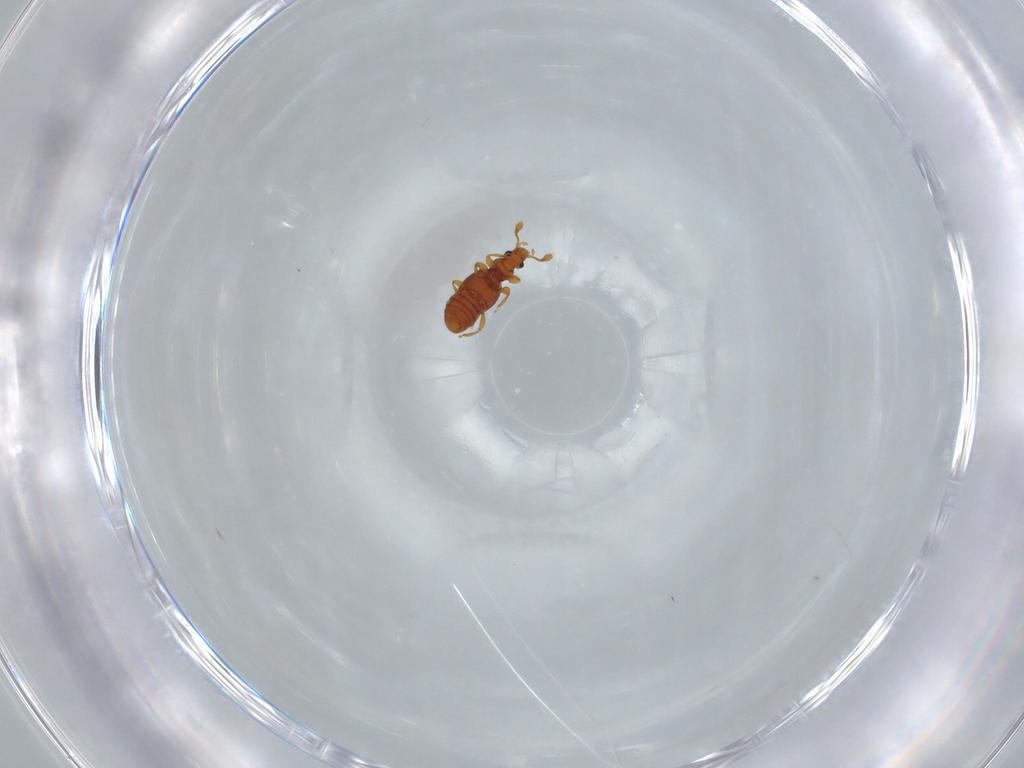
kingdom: Animalia
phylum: Arthropoda
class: Insecta
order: Coleoptera
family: Staphylinidae
